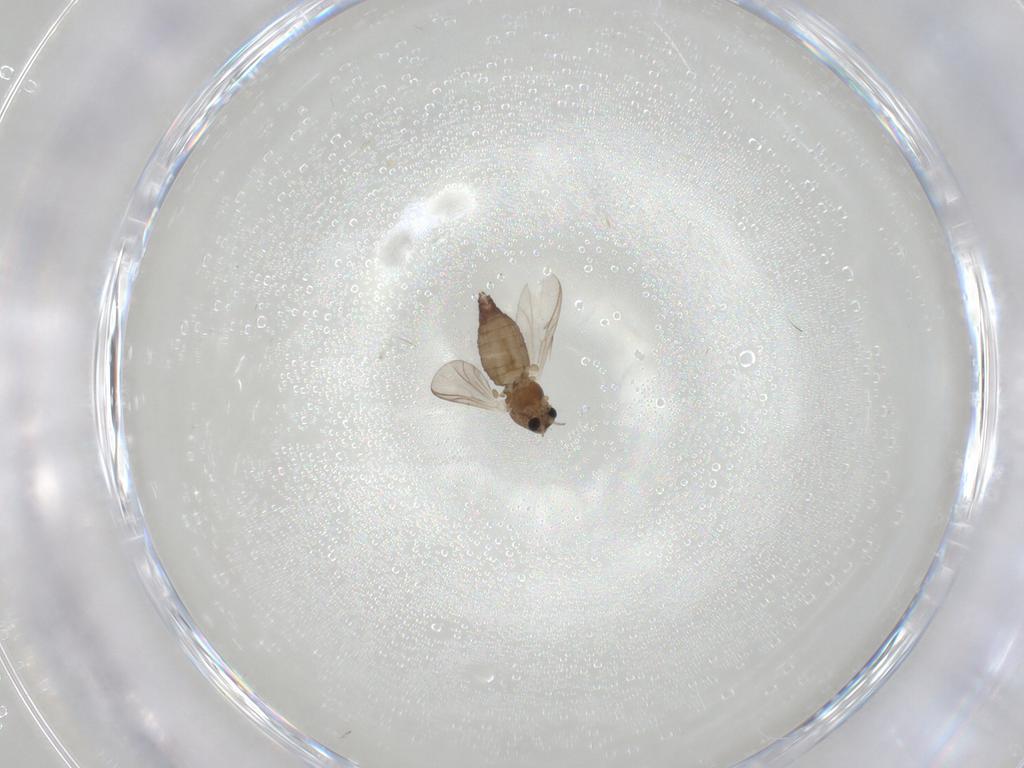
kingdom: Animalia
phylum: Arthropoda
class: Insecta
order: Diptera
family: Chironomidae
